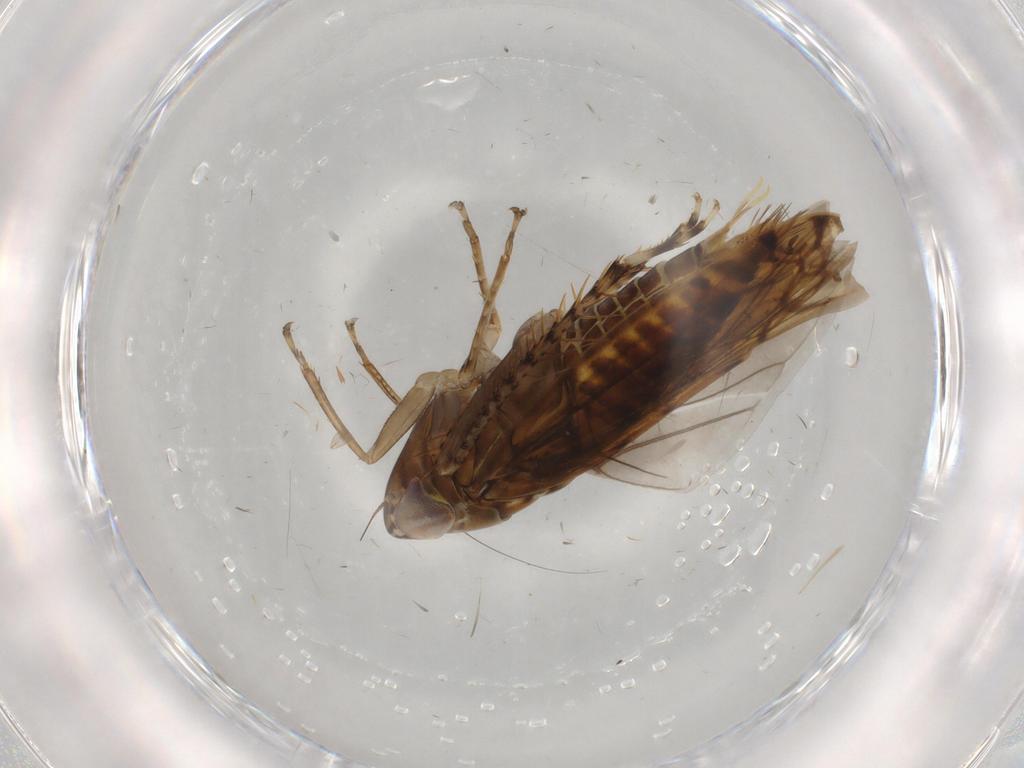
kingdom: Animalia
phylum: Arthropoda
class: Insecta
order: Hemiptera
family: Cicadellidae
